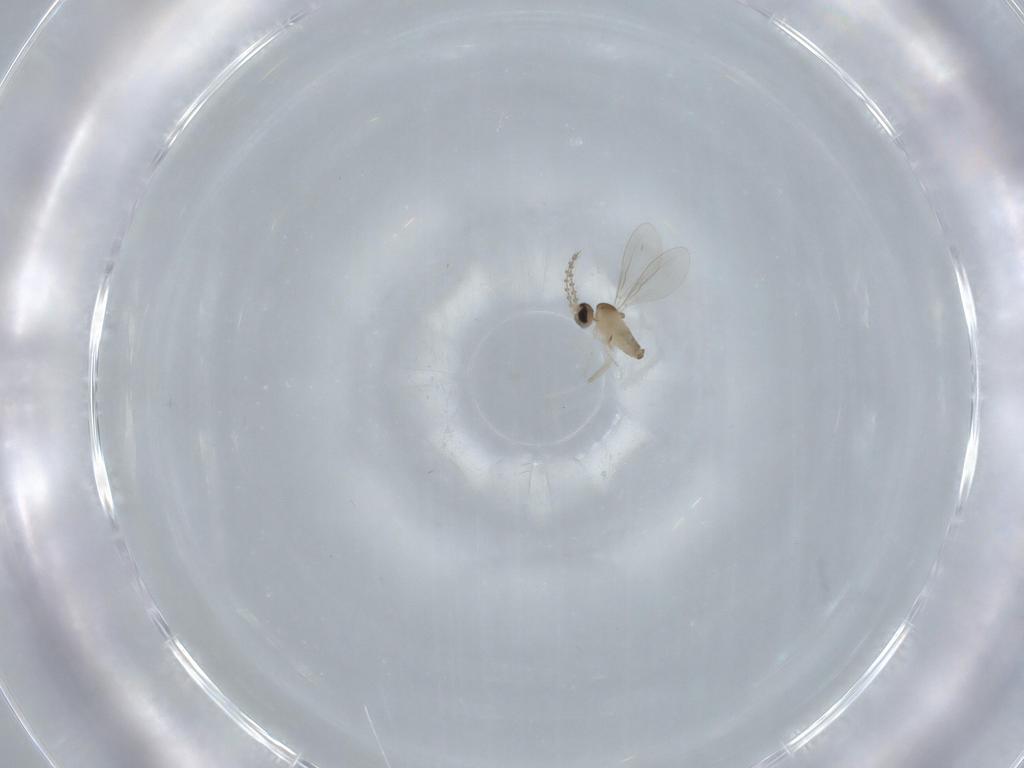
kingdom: Animalia
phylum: Arthropoda
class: Insecta
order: Diptera
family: Cecidomyiidae
